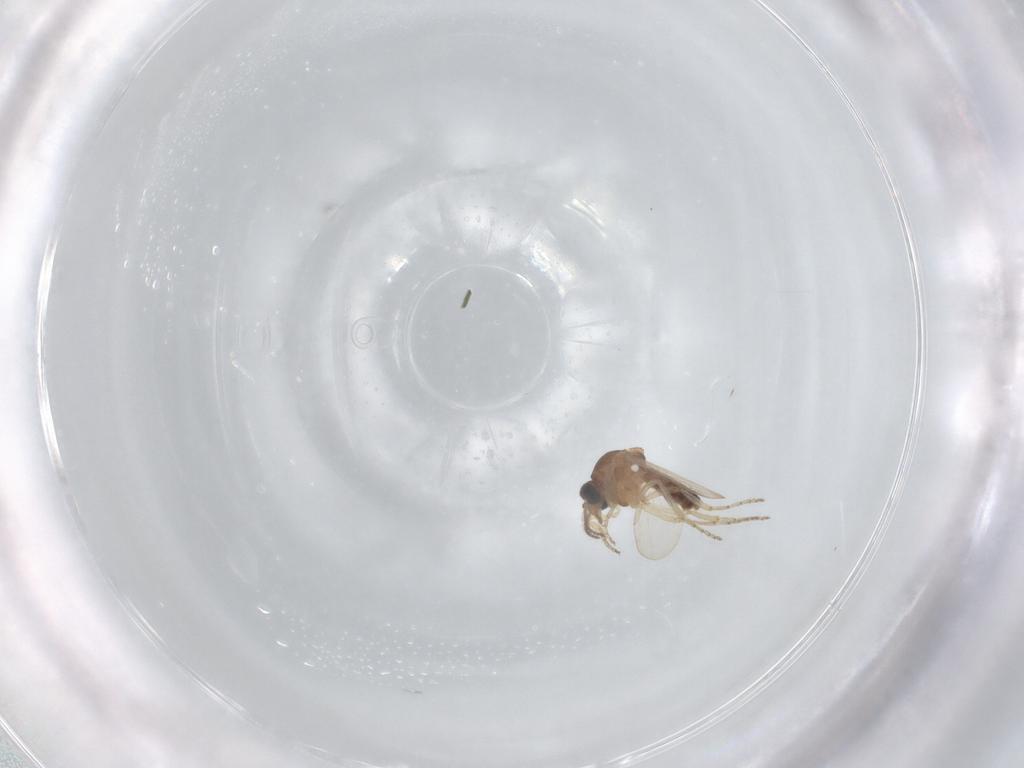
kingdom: Animalia
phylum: Arthropoda
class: Insecta
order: Diptera
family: Ceratopogonidae
